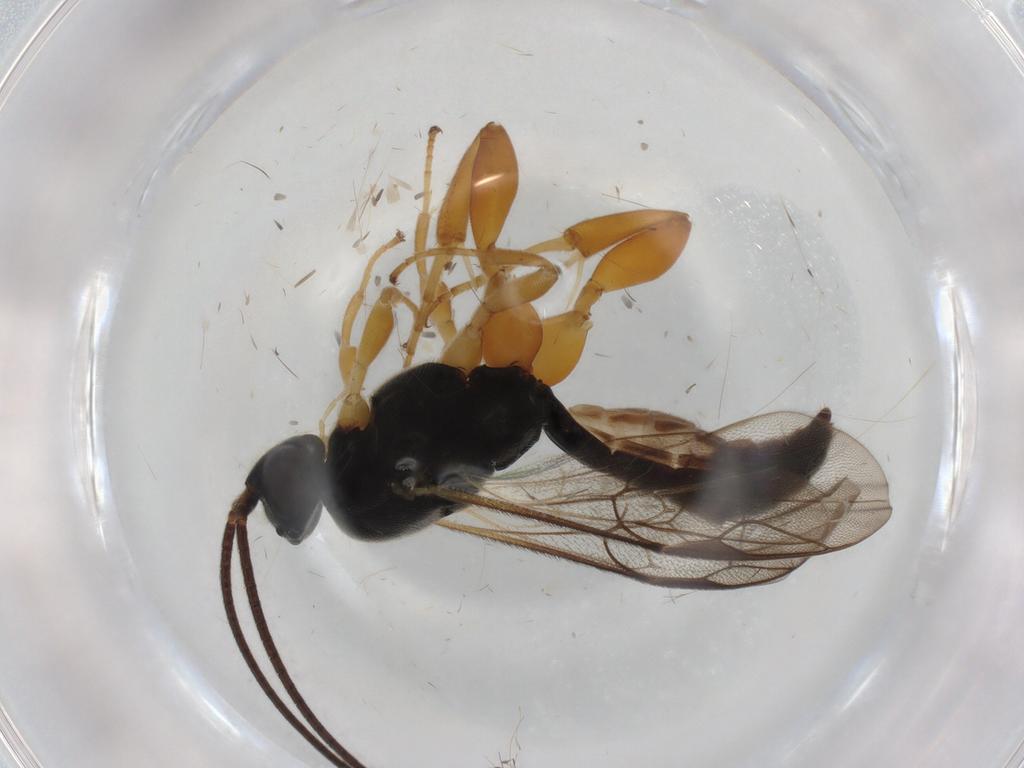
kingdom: Animalia
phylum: Arthropoda
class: Insecta
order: Hymenoptera
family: Ichneumonidae
